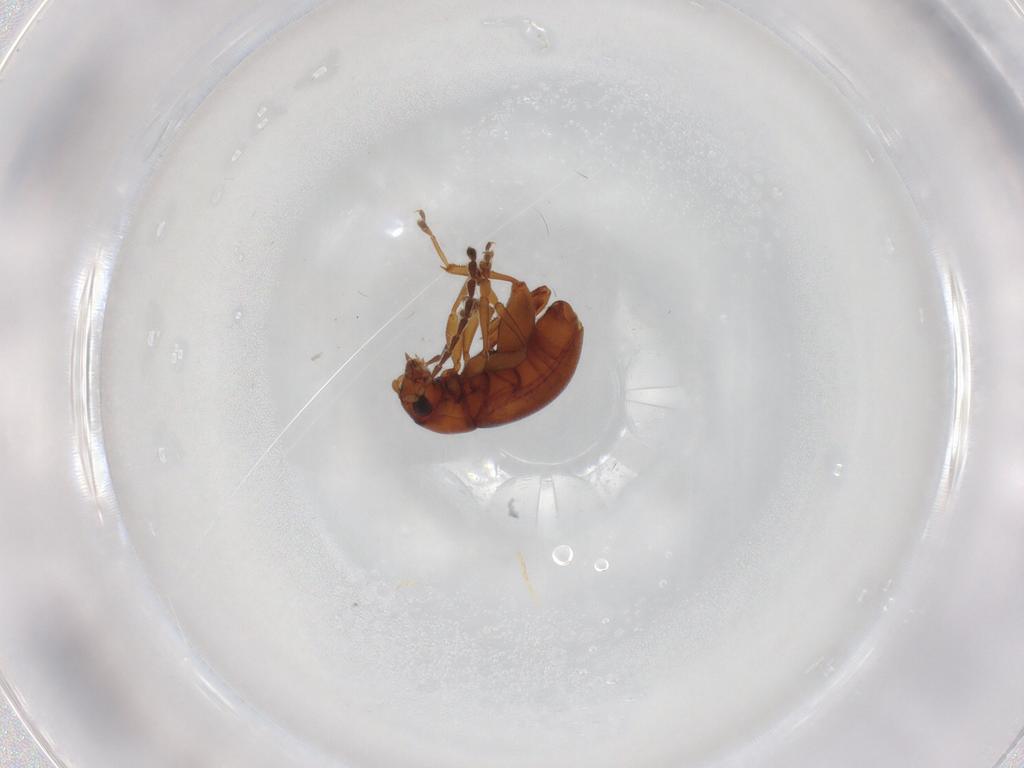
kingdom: Animalia
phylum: Arthropoda
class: Insecta
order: Coleoptera
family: Chrysomelidae
